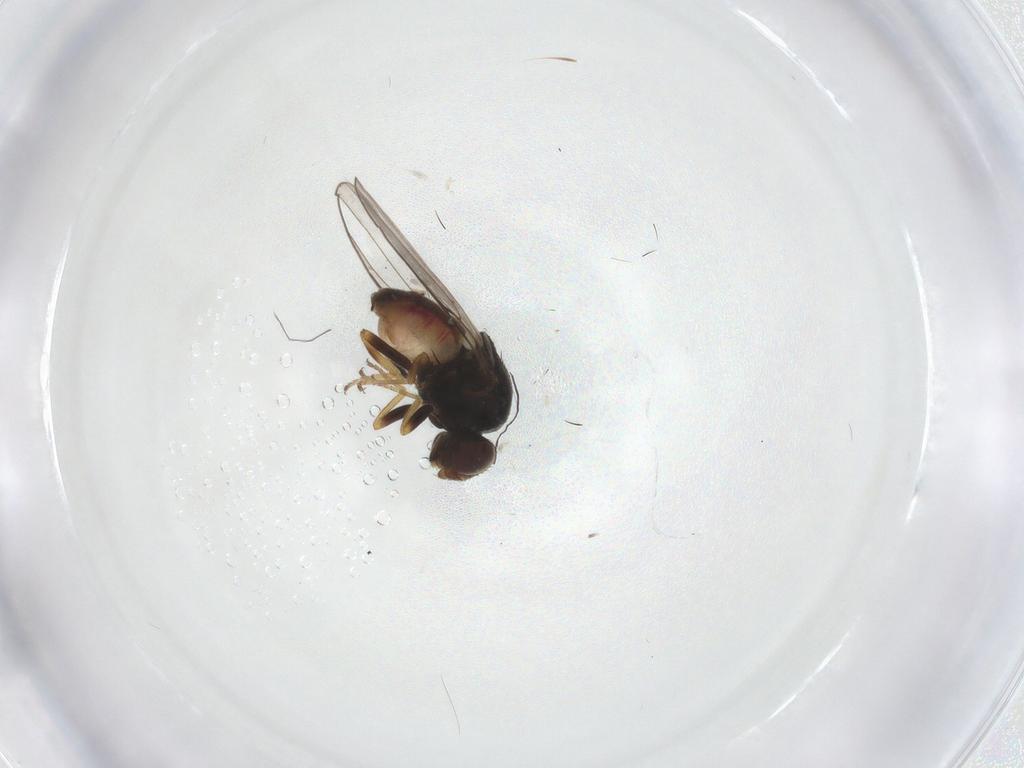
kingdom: Animalia
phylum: Arthropoda
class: Insecta
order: Diptera
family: Chloropidae
